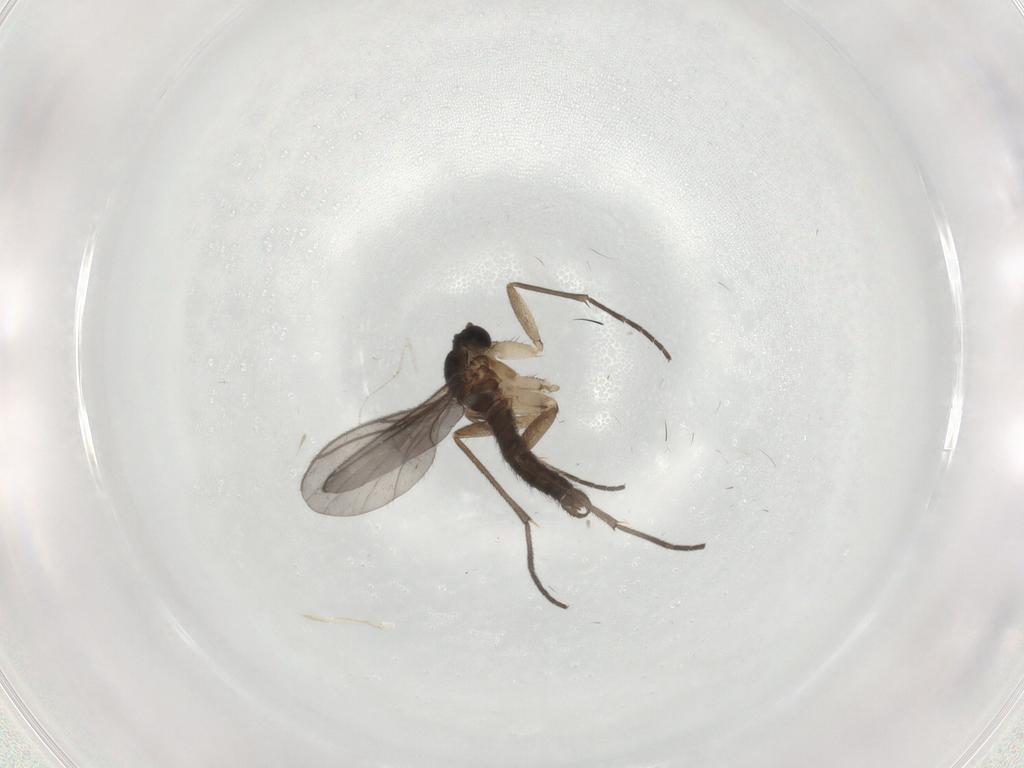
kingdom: Animalia
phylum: Arthropoda
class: Insecta
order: Diptera
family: Sciaridae
